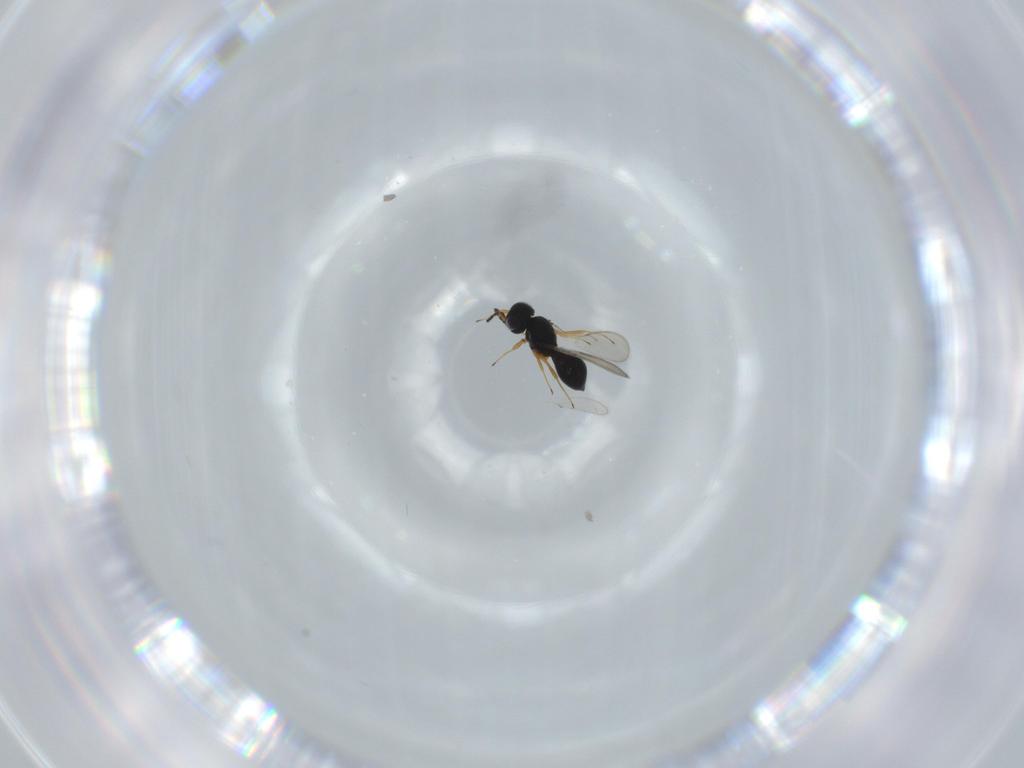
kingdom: Animalia
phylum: Arthropoda
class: Insecta
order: Hymenoptera
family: Scelionidae
